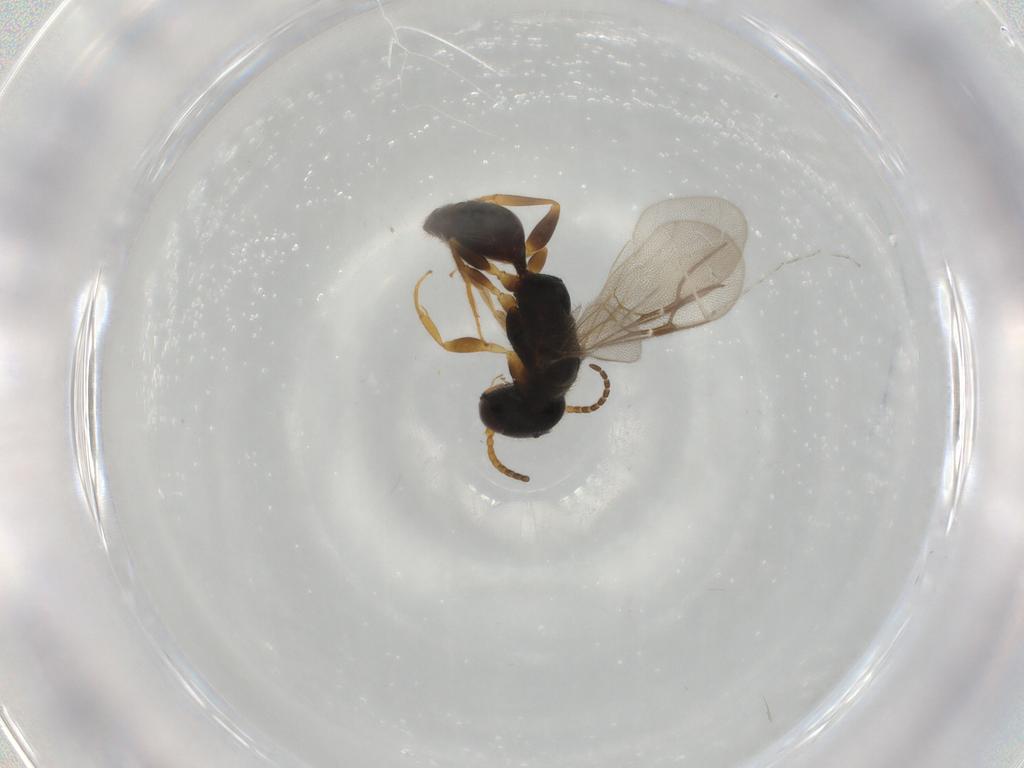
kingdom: Animalia
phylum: Arthropoda
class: Insecta
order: Hymenoptera
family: Bethylidae
